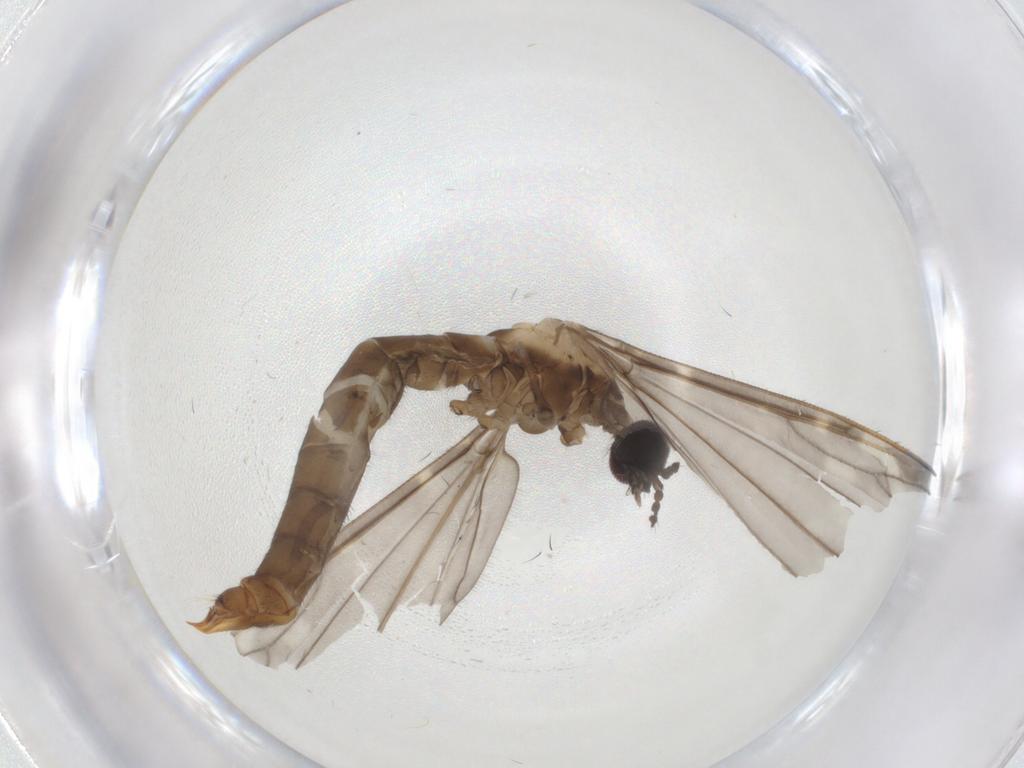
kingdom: Animalia
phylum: Arthropoda
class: Insecta
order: Diptera
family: Limoniidae
